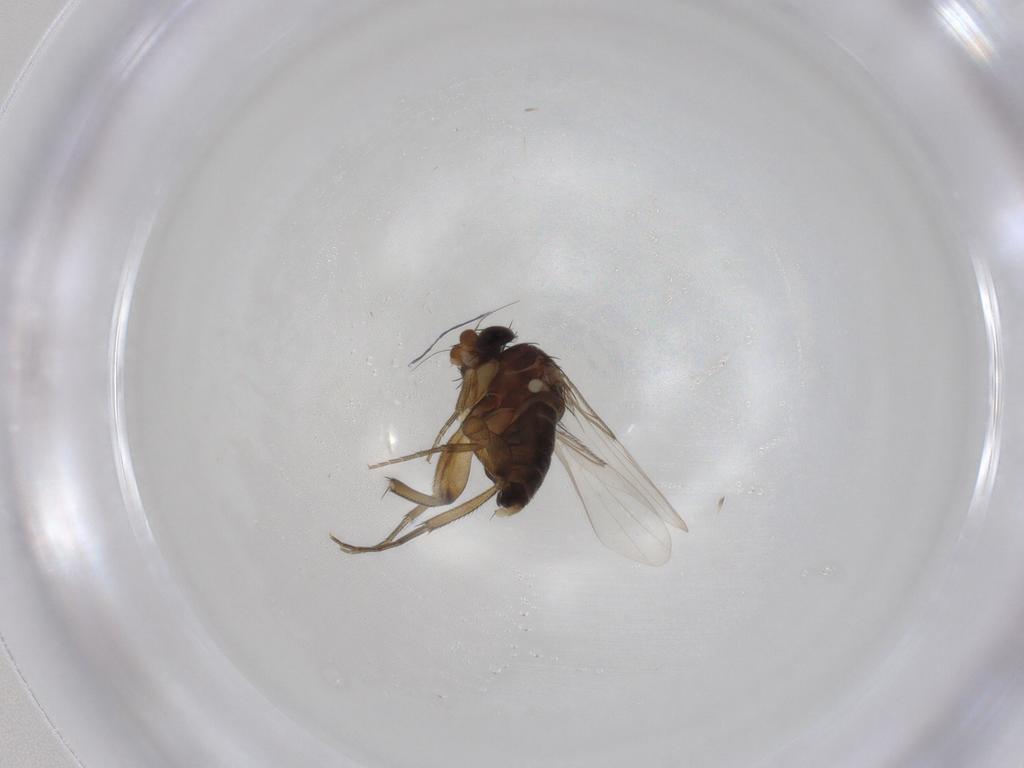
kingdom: Animalia
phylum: Arthropoda
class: Insecta
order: Diptera
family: Phoridae
